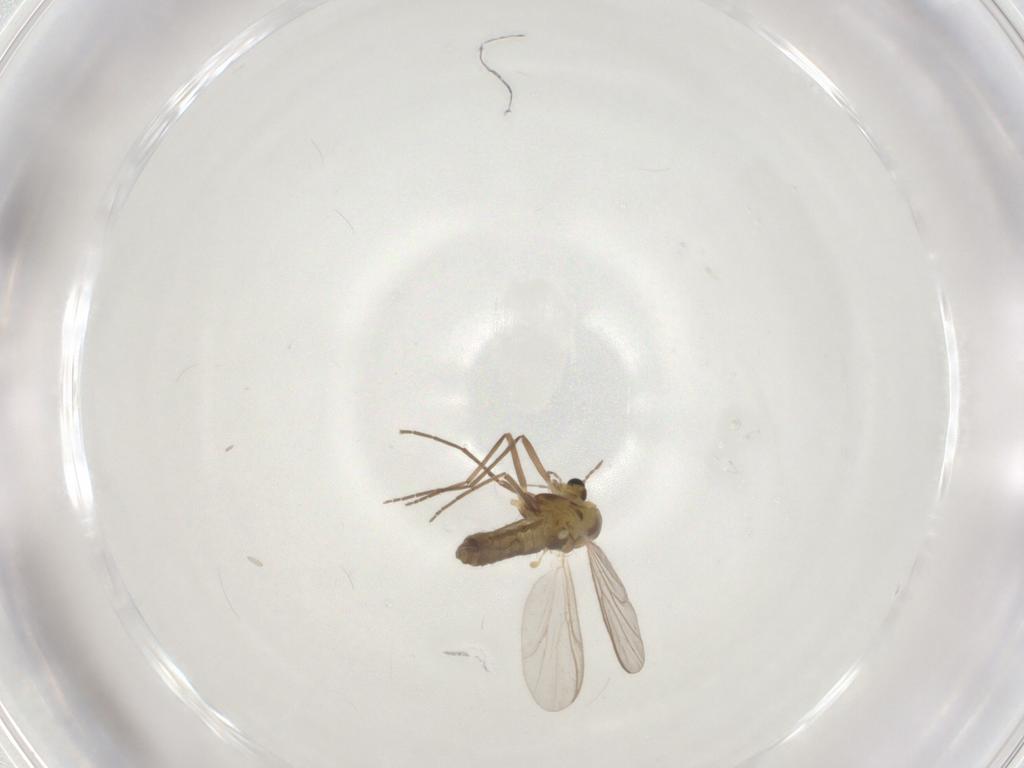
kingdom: Animalia
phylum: Arthropoda
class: Insecta
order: Diptera
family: Chironomidae
